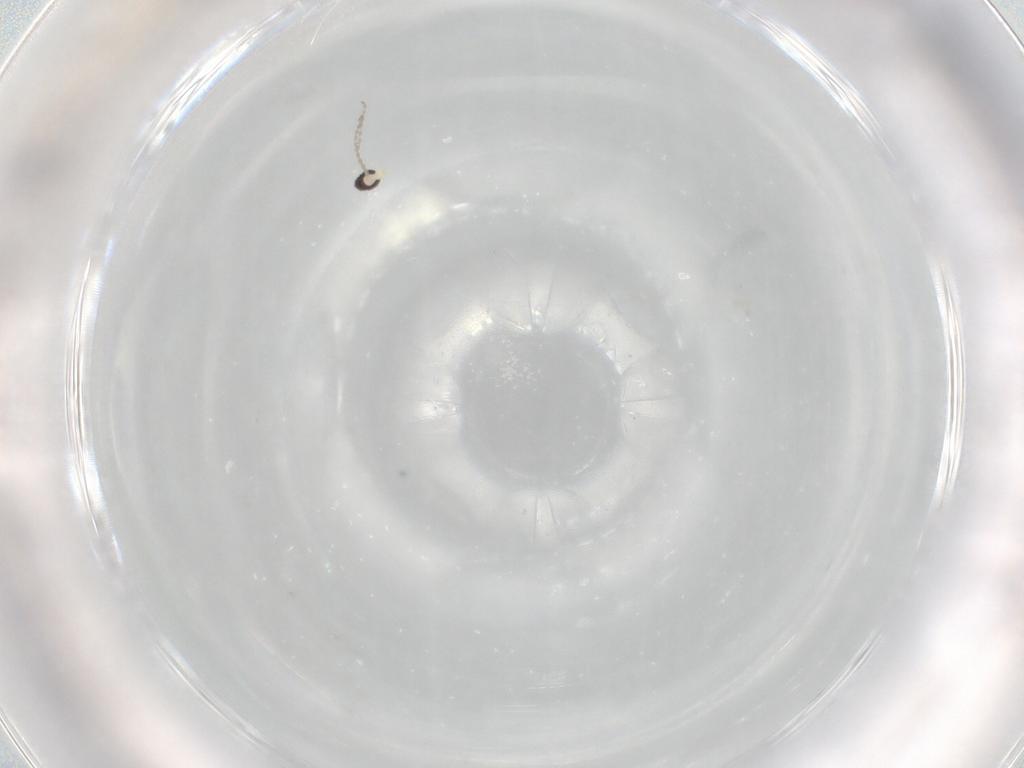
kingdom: Animalia
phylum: Arthropoda
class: Insecta
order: Diptera
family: Cecidomyiidae
